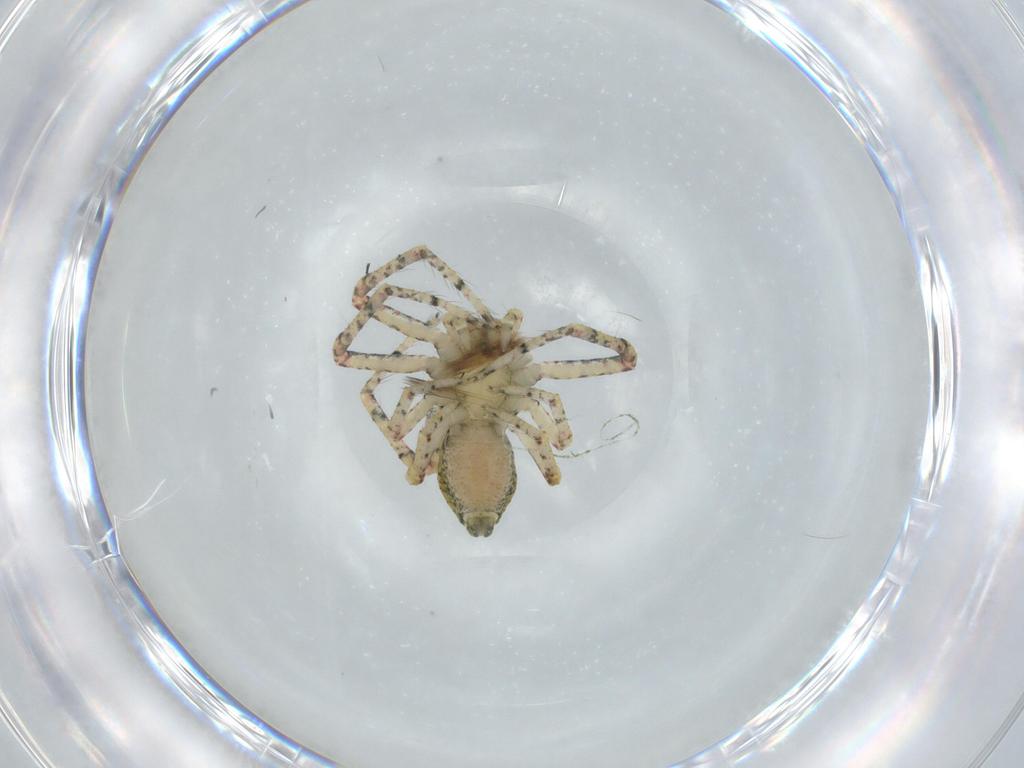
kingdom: Animalia
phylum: Arthropoda
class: Arachnida
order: Araneae
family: Thomisidae
